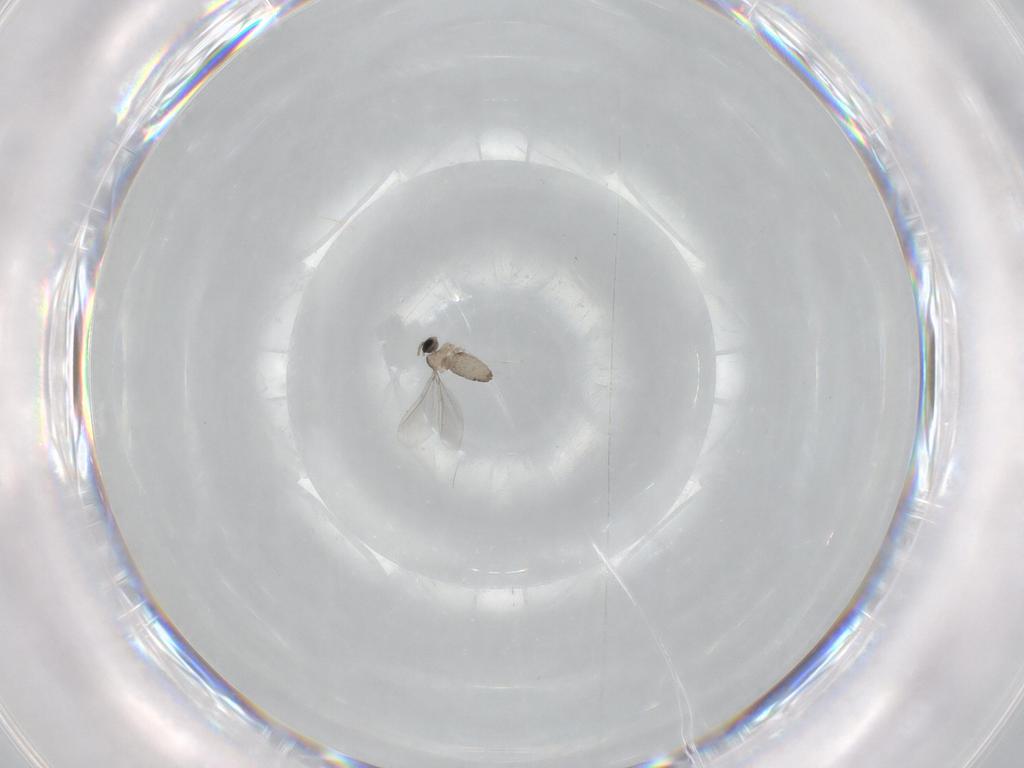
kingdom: Animalia
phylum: Arthropoda
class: Insecta
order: Diptera
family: Cecidomyiidae
